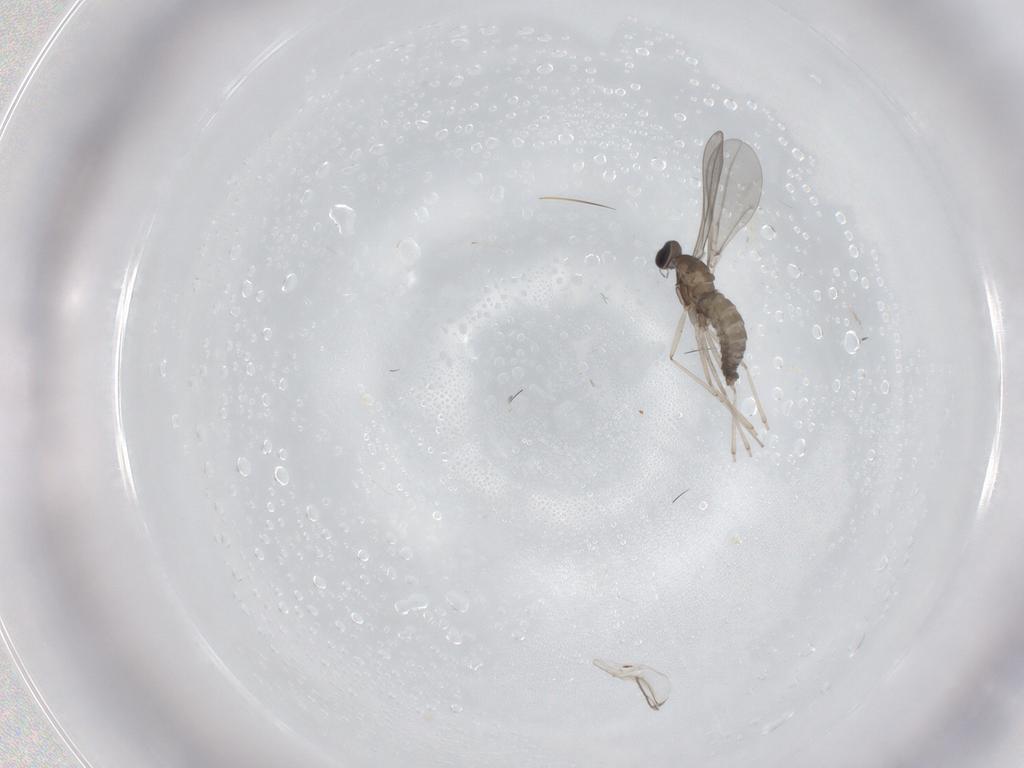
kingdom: Animalia
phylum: Arthropoda
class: Insecta
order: Diptera
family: Cecidomyiidae
